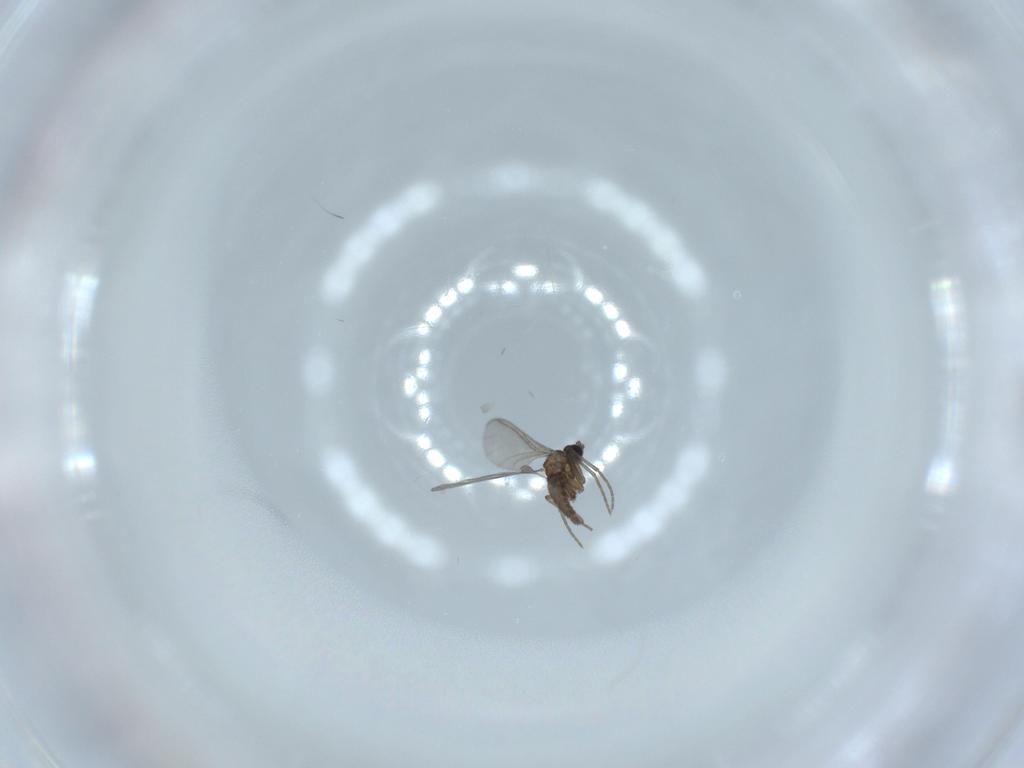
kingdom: Animalia
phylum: Arthropoda
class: Insecta
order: Diptera
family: Sciaridae
